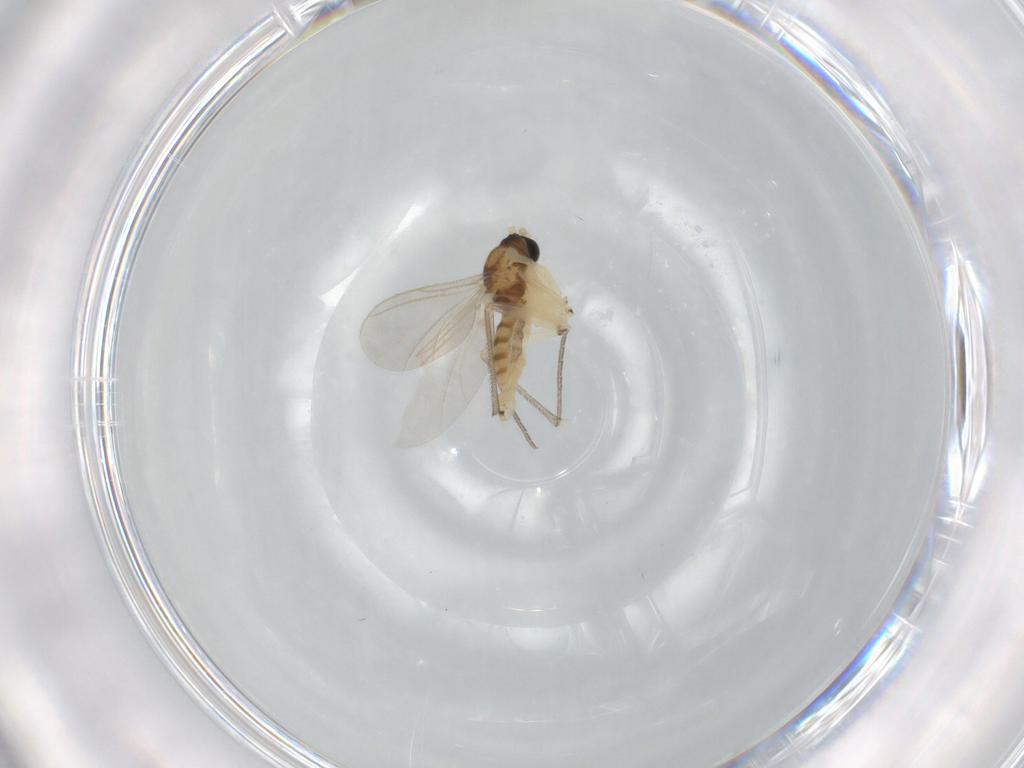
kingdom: Animalia
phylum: Arthropoda
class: Insecta
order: Diptera
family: Sciaridae
